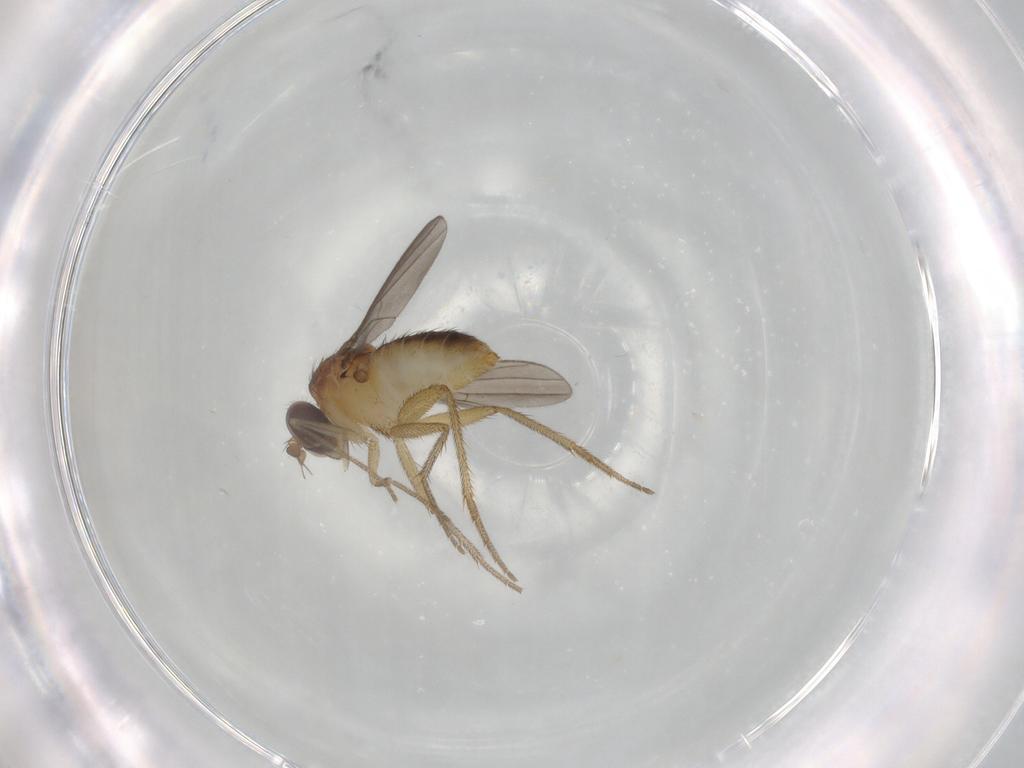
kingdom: Animalia
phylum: Arthropoda
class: Insecta
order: Diptera
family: Dolichopodidae
